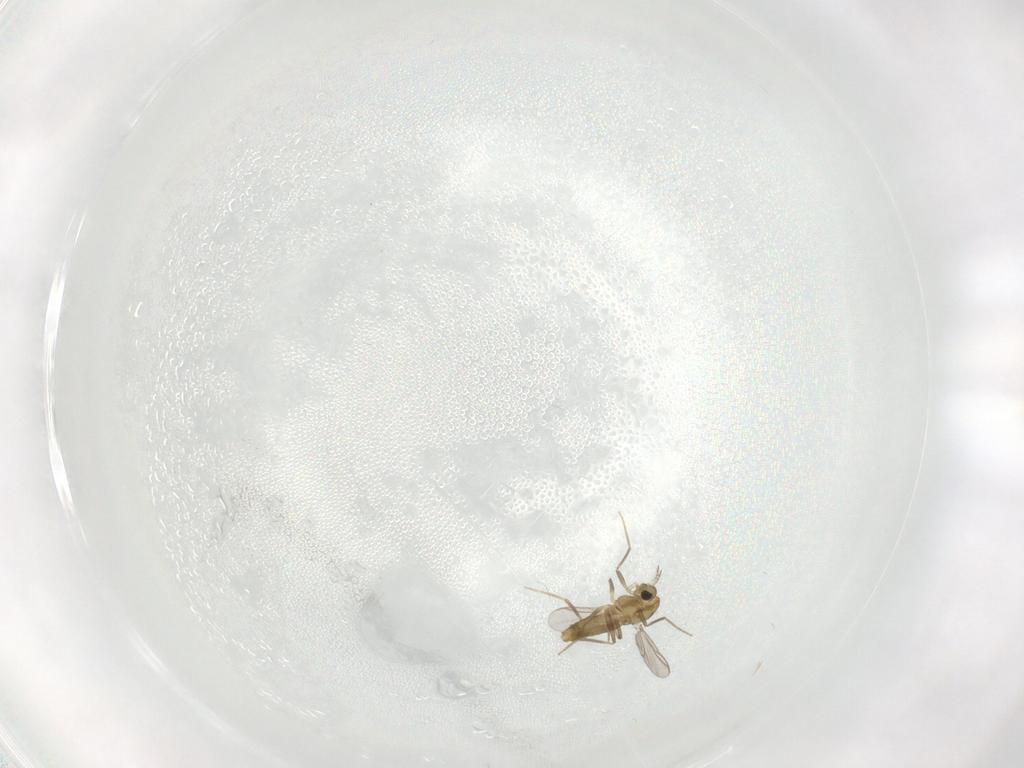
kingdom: Animalia
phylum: Arthropoda
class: Insecta
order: Diptera
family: Chironomidae
